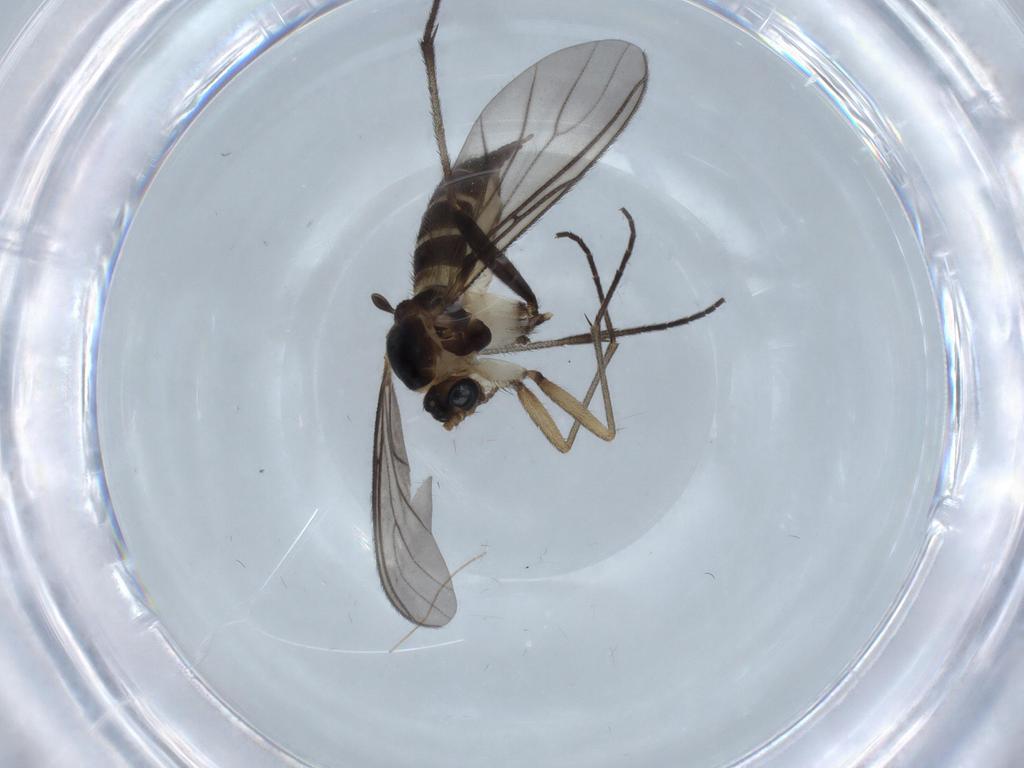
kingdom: Animalia
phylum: Arthropoda
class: Insecta
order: Diptera
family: Sciaridae
